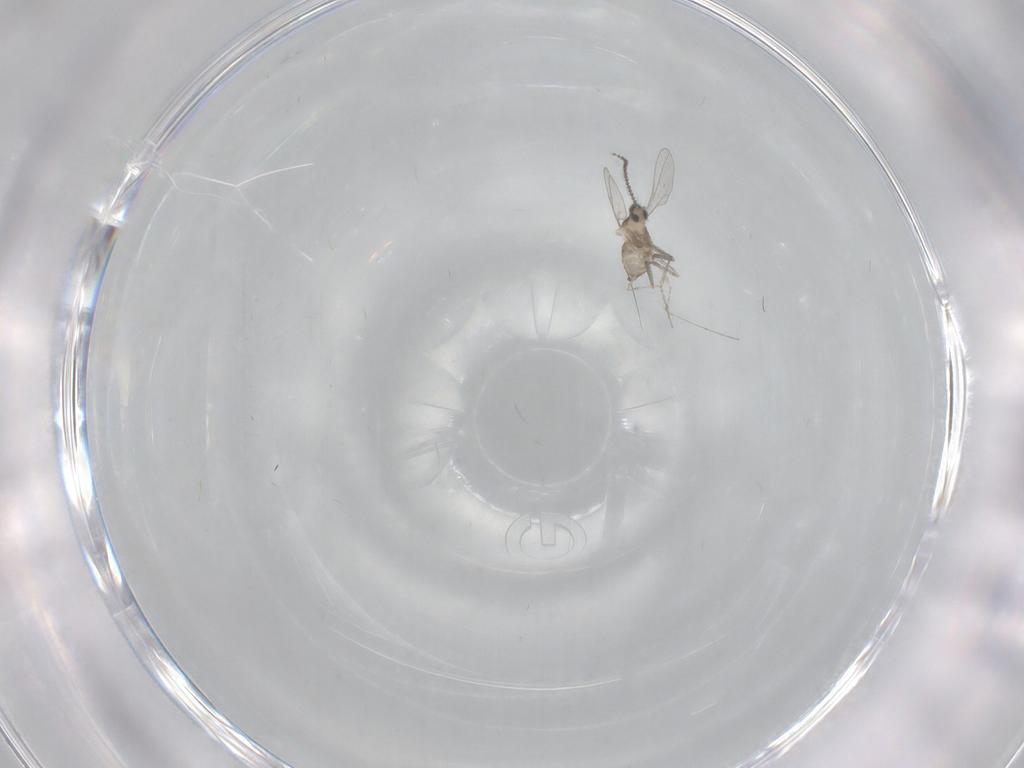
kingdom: Animalia
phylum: Arthropoda
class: Insecta
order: Diptera
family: Cecidomyiidae
